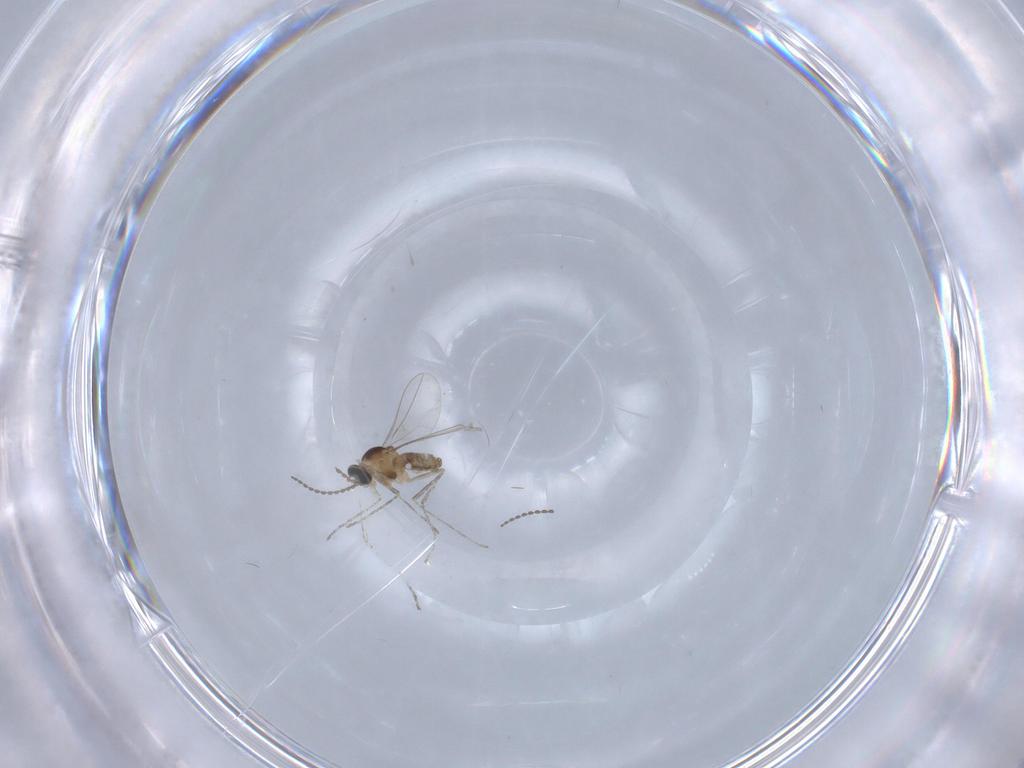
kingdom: Animalia
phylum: Arthropoda
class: Insecta
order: Diptera
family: Cecidomyiidae
